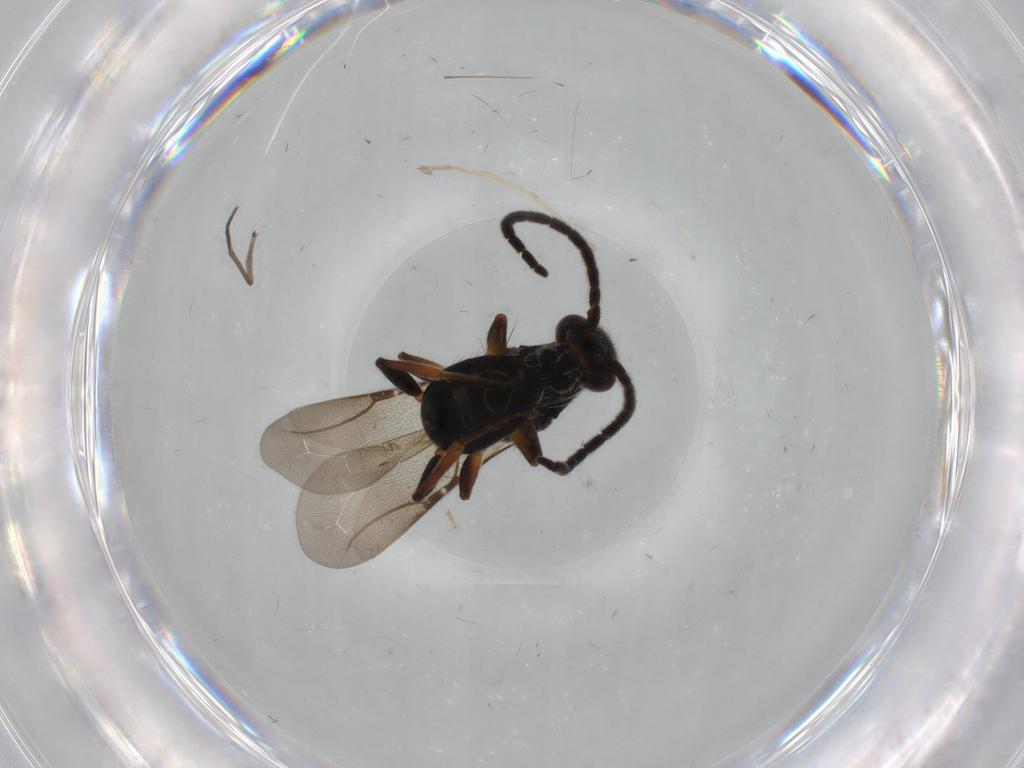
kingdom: Animalia
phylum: Arthropoda
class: Insecta
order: Hymenoptera
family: Bethylidae
